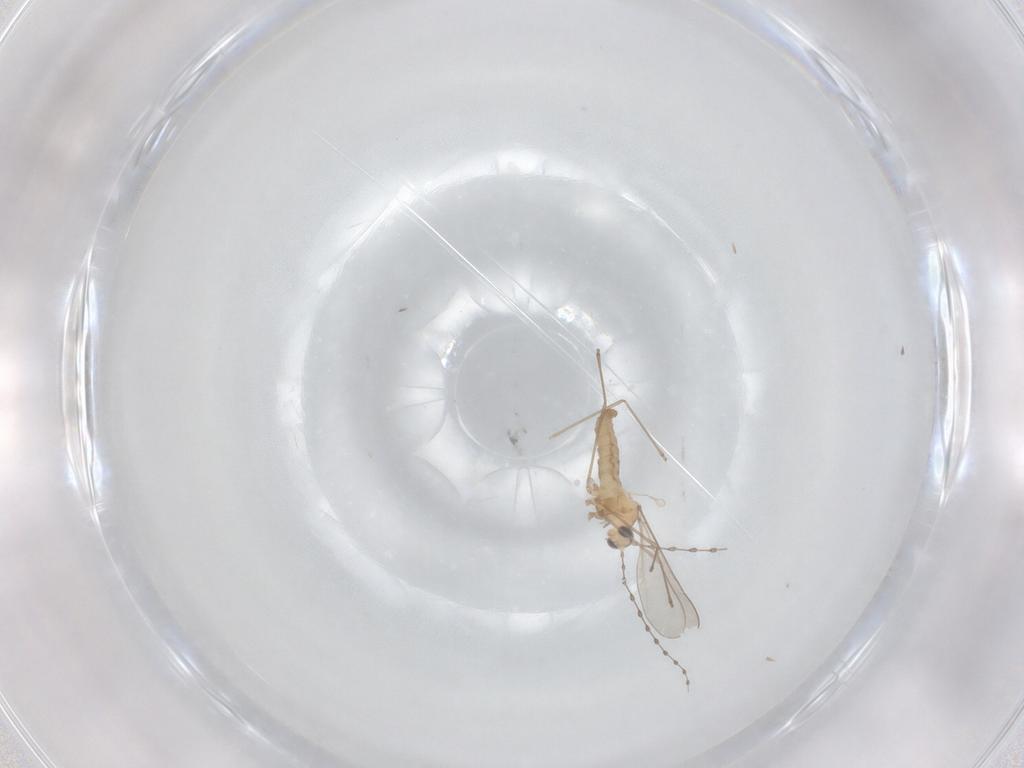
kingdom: Animalia
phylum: Arthropoda
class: Insecta
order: Diptera
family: Cecidomyiidae
